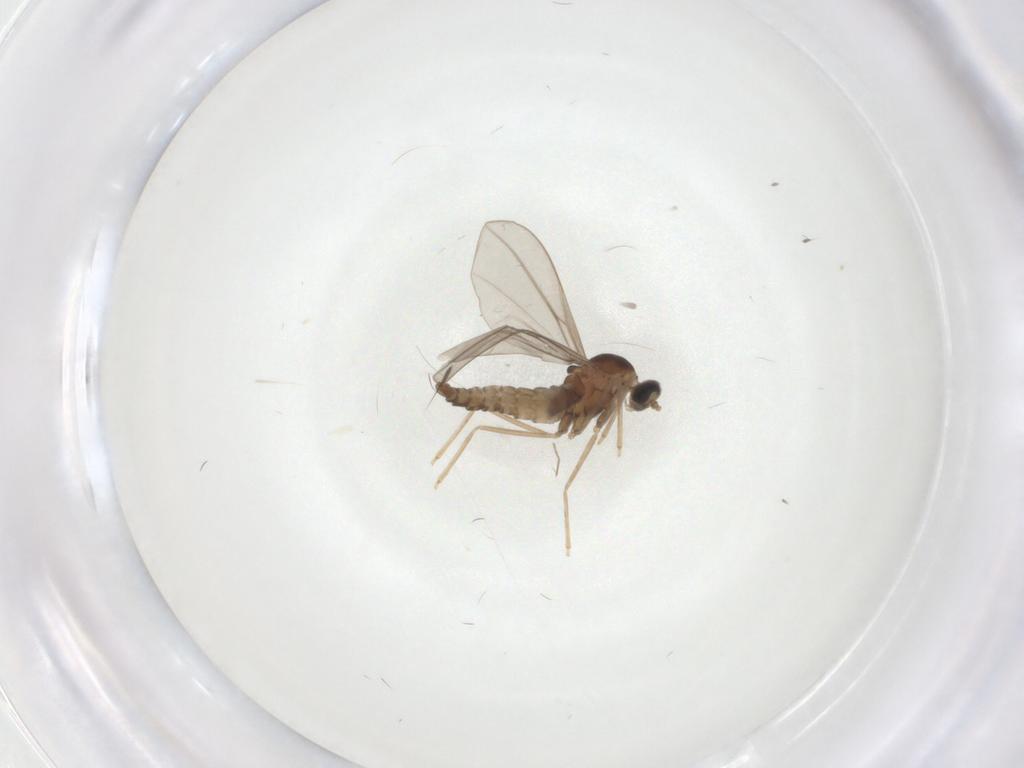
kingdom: Animalia
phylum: Arthropoda
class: Insecta
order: Diptera
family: Cecidomyiidae
